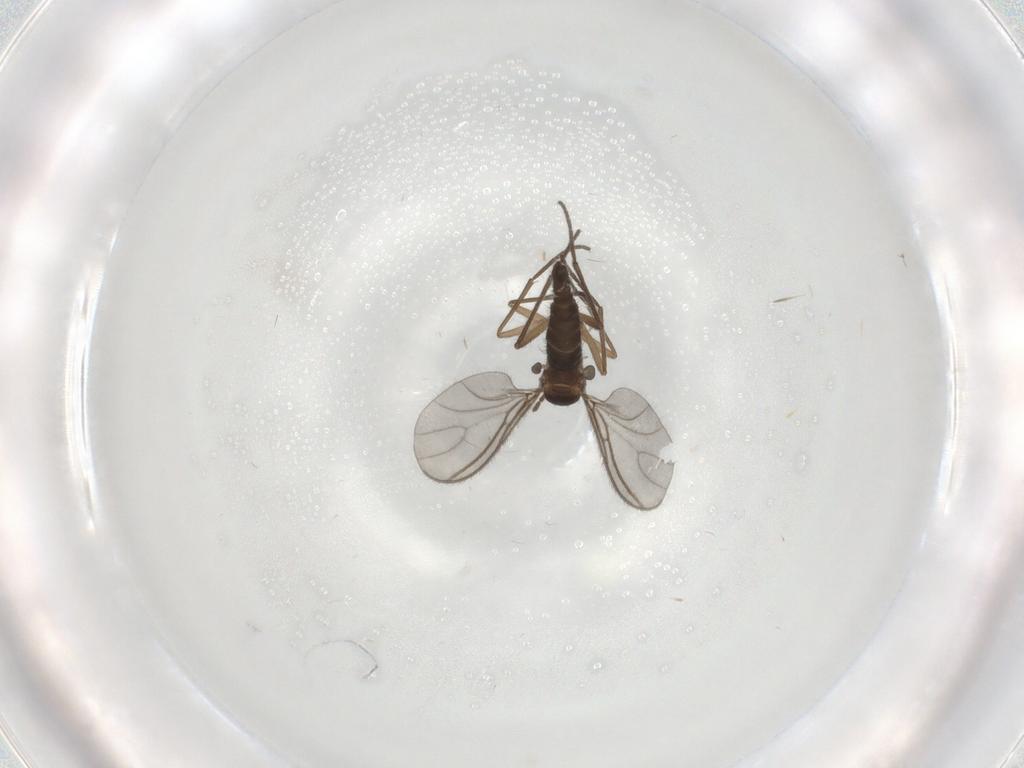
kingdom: Animalia
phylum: Arthropoda
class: Insecta
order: Diptera
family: Sciaridae
